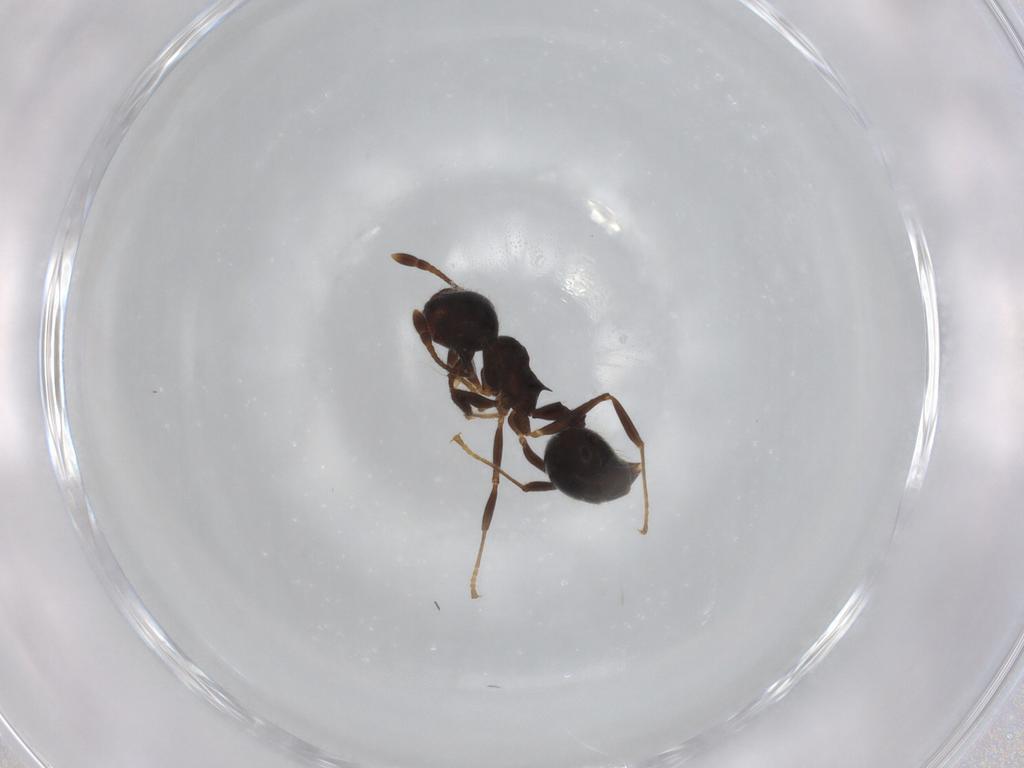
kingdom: Animalia
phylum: Arthropoda
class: Insecta
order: Hymenoptera
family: Formicidae
